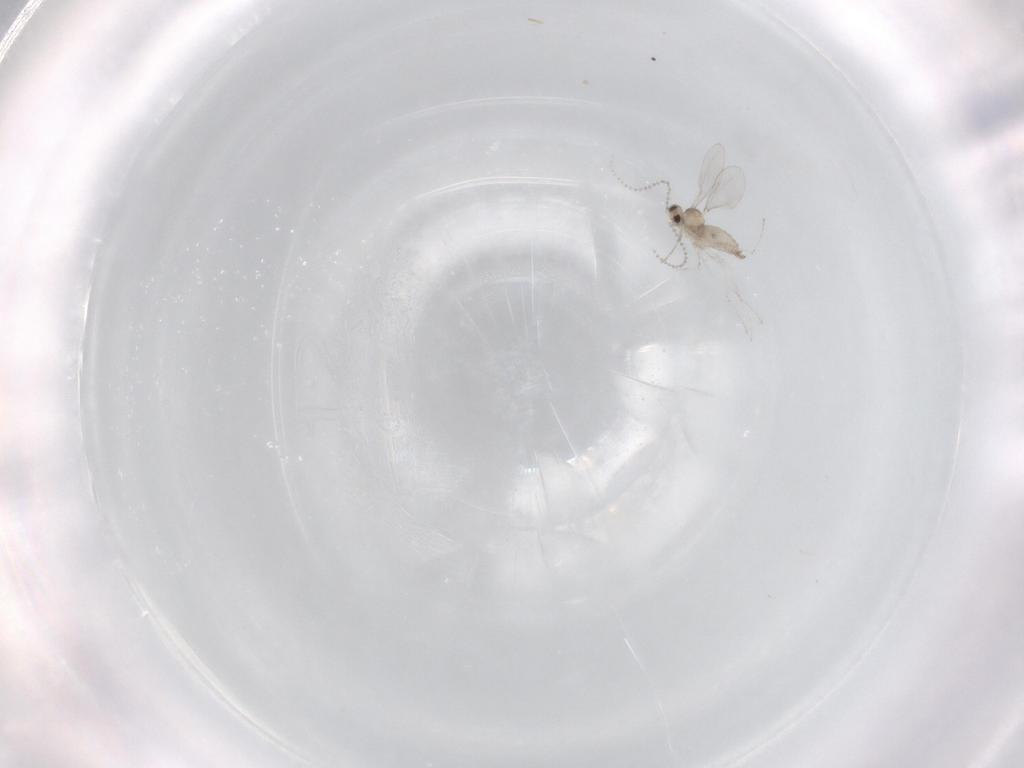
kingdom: Animalia
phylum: Arthropoda
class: Insecta
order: Diptera
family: Cecidomyiidae
